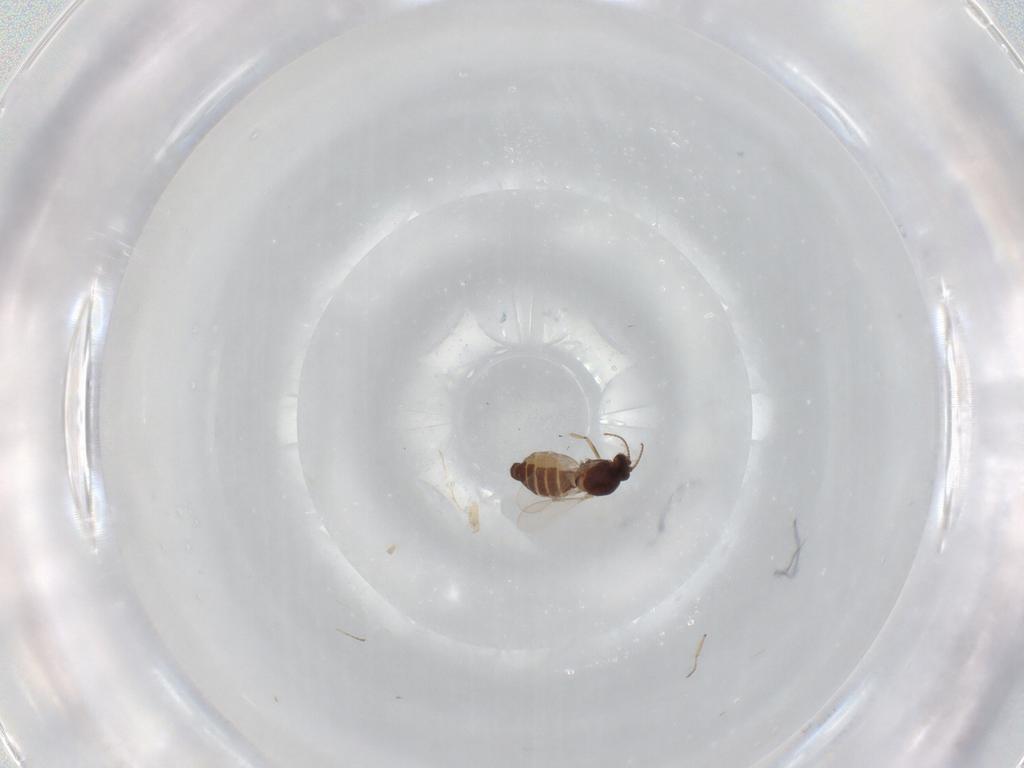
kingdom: Animalia
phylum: Arthropoda
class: Insecta
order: Diptera
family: Ceratopogonidae
